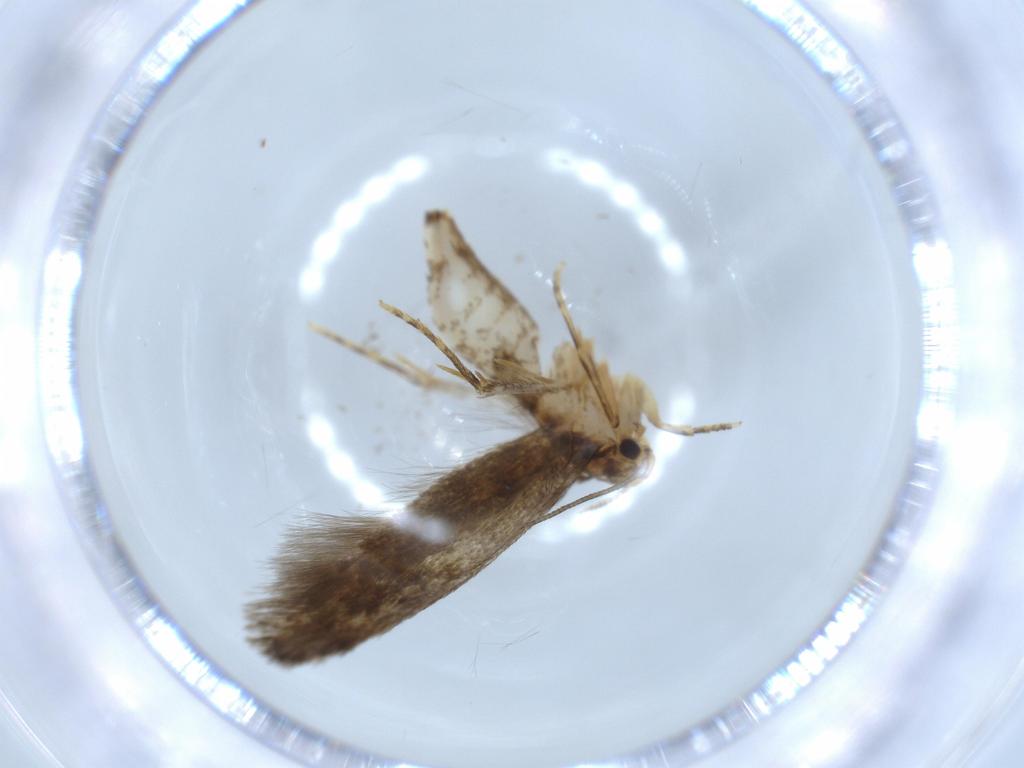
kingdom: Animalia
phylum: Arthropoda
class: Insecta
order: Lepidoptera
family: Tineidae
